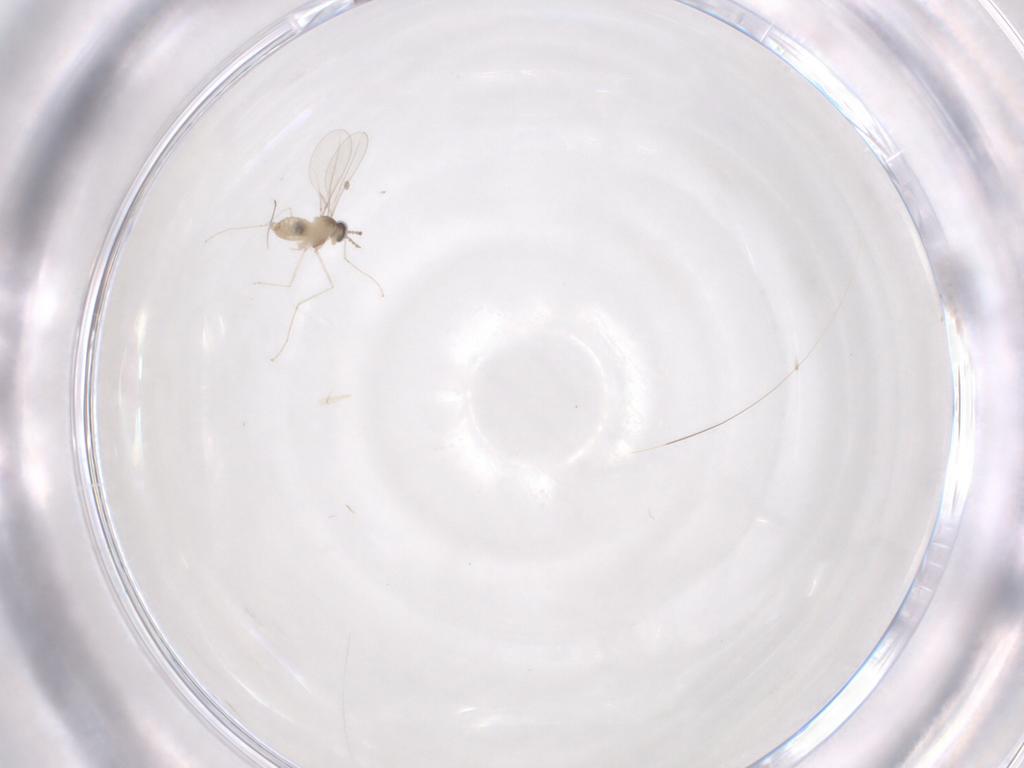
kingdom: Animalia
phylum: Arthropoda
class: Insecta
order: Diptera
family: Cecidomyiidae
